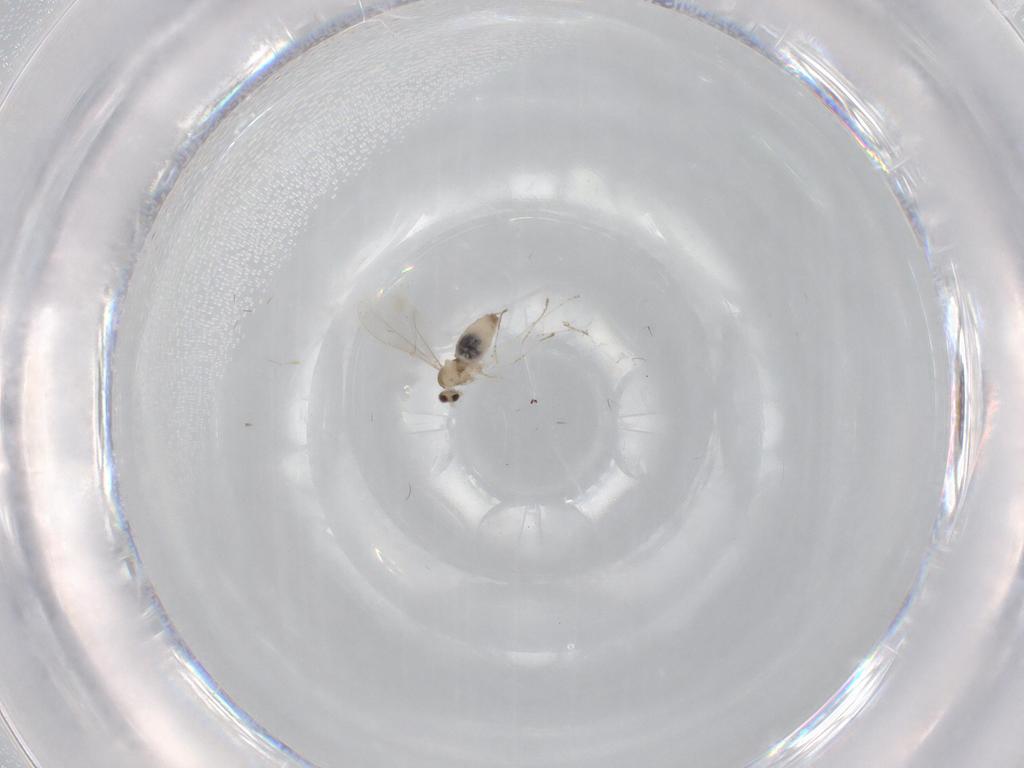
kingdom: Animalia
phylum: Arthropoda
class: Insecta
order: Diptera
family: Cecidomyiidae
